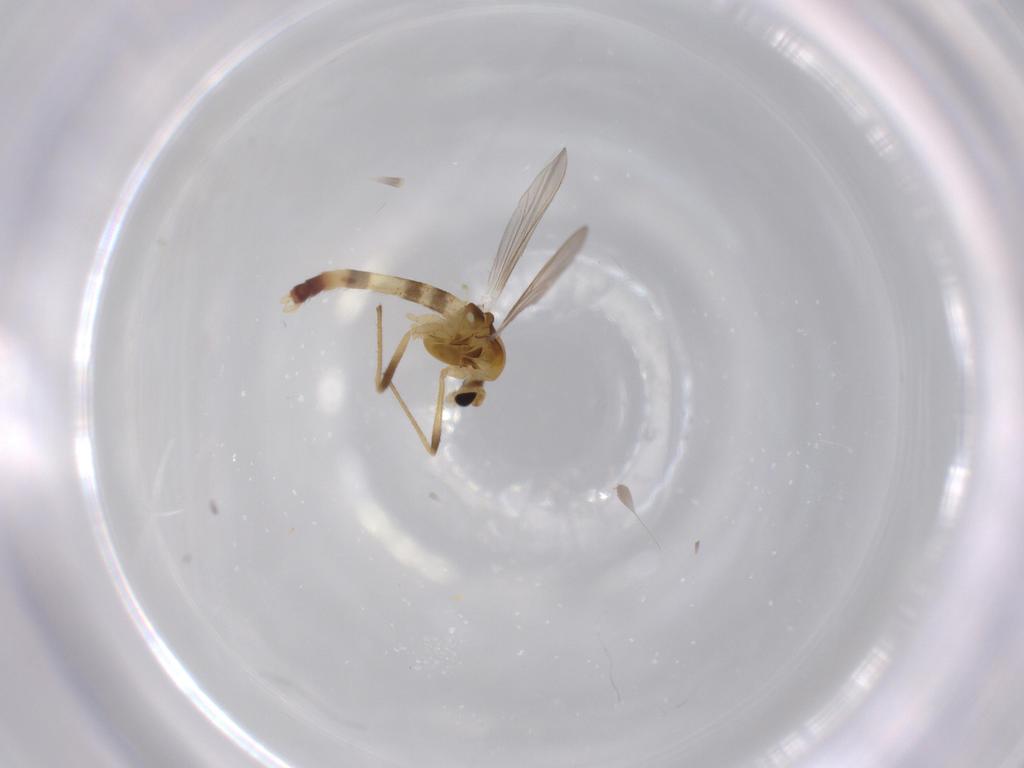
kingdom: Animalia
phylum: Arthropoda
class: Insecta
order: Diptera
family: Chironomidae
